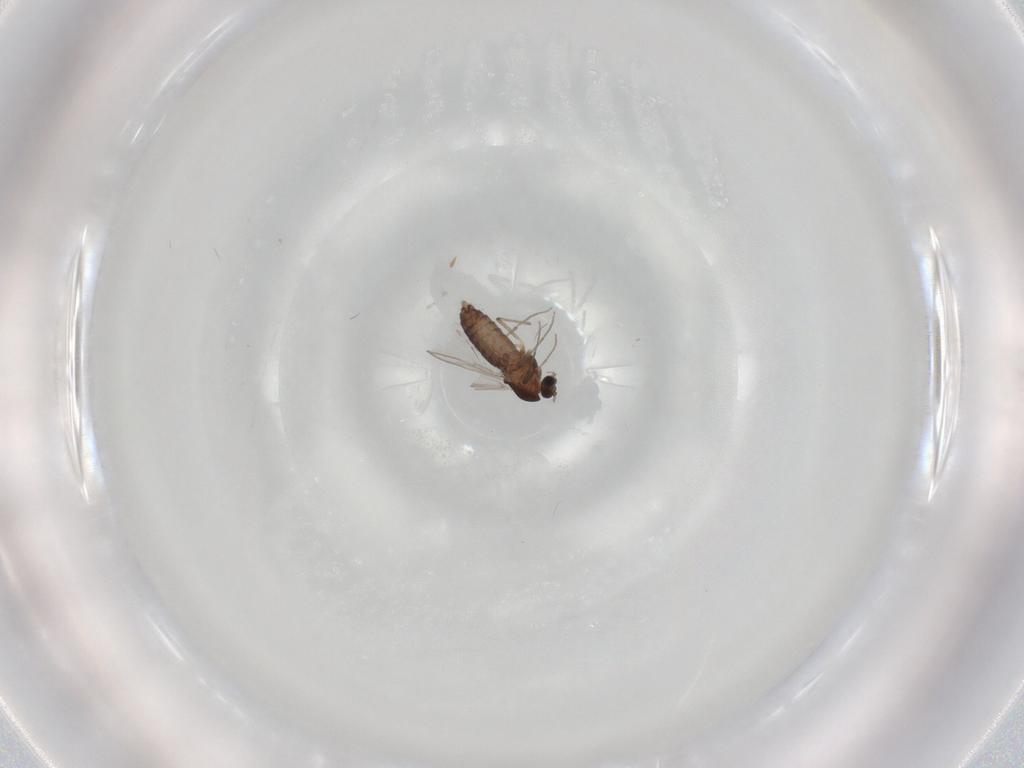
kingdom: Animalia
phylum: Arthropoda
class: Insecta
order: Diptera
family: Chironomidae
